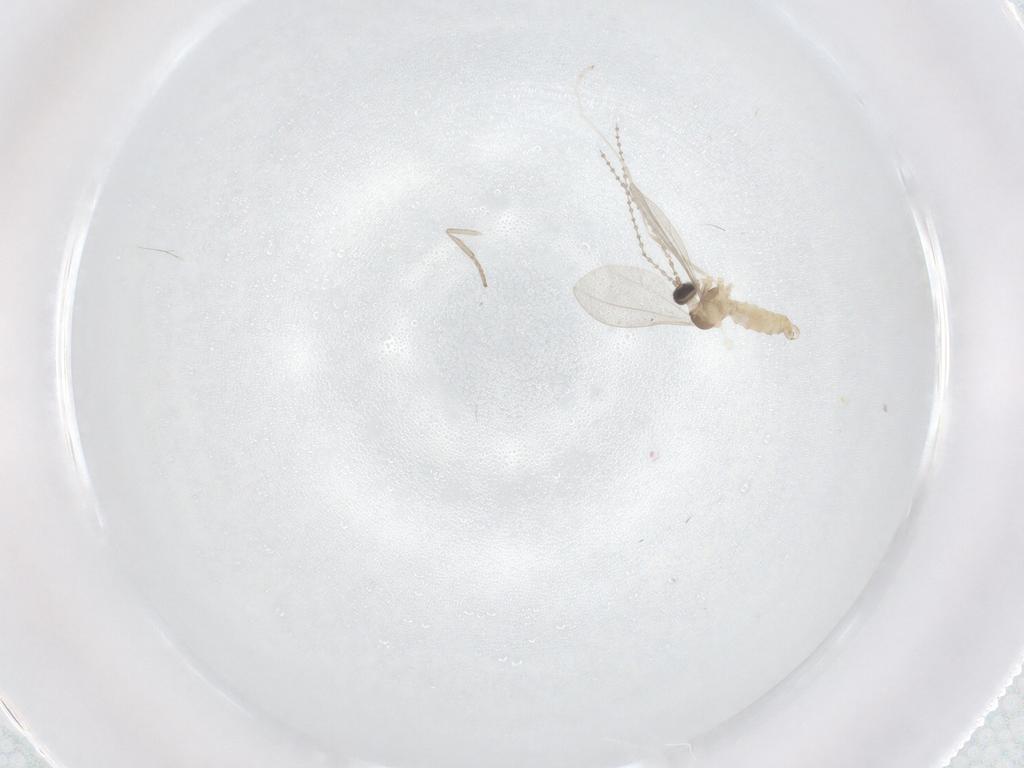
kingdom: Animalia
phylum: Arthropoda
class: Insecta
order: Diptera
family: Cecidomyiidae
